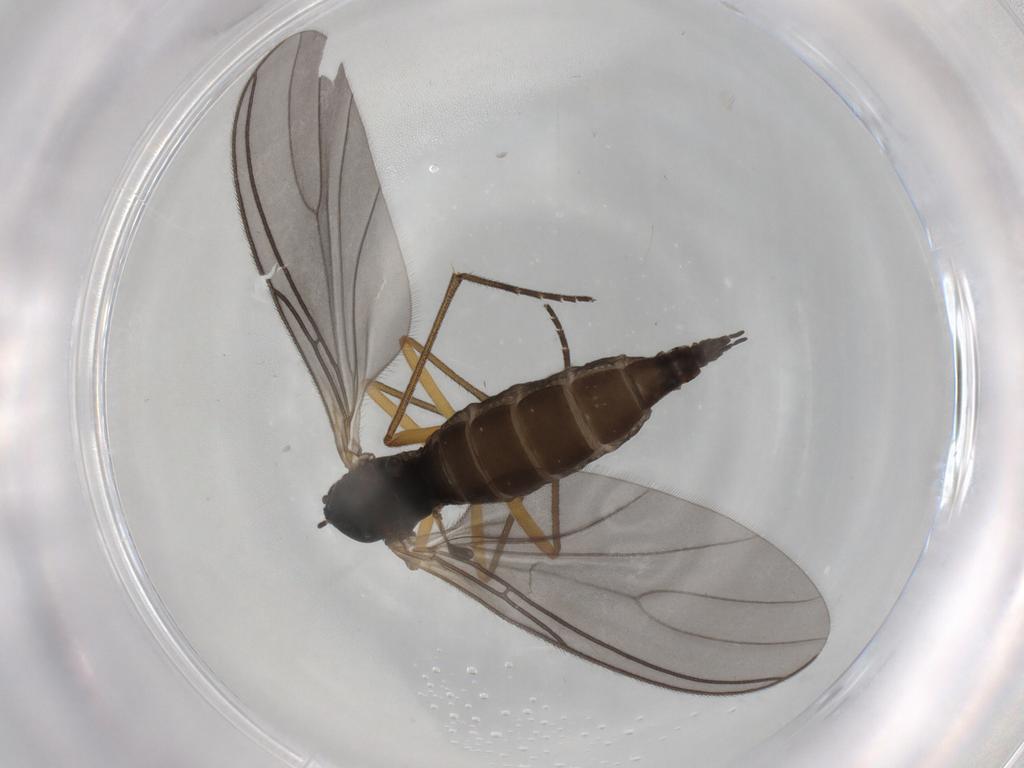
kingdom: Animalia
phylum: Arthropoda
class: Insecta
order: Diptera
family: Sciaridae
